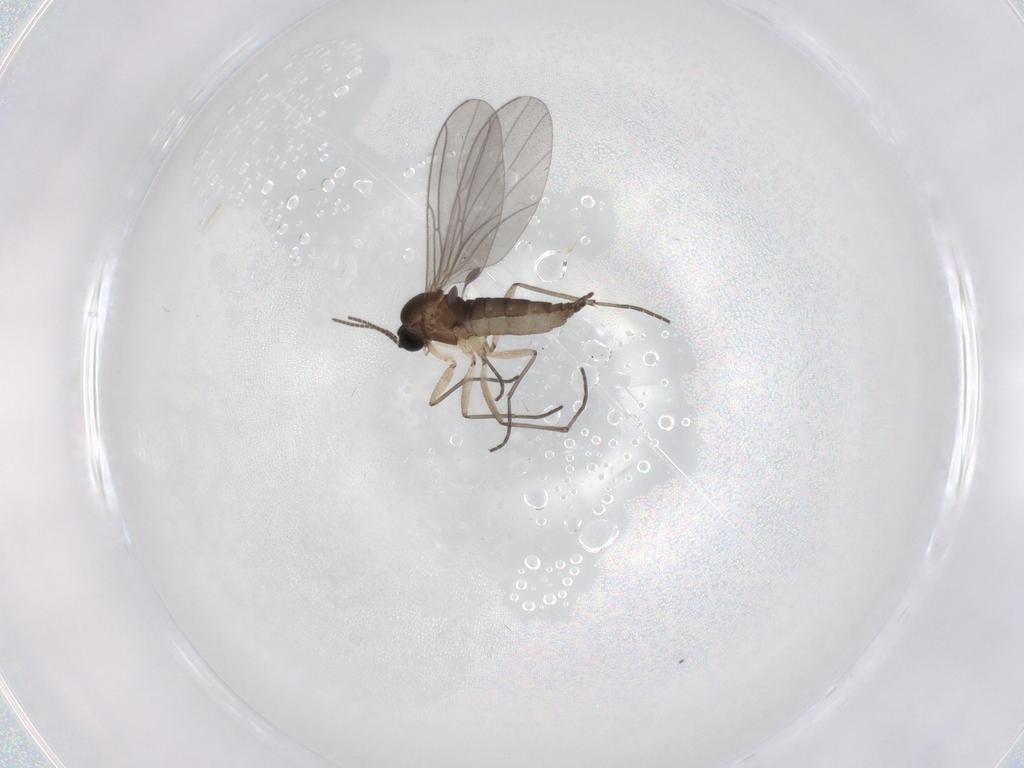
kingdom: Animalia
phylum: Arthropoda
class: Insecta
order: Diptera
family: Sciaridae
